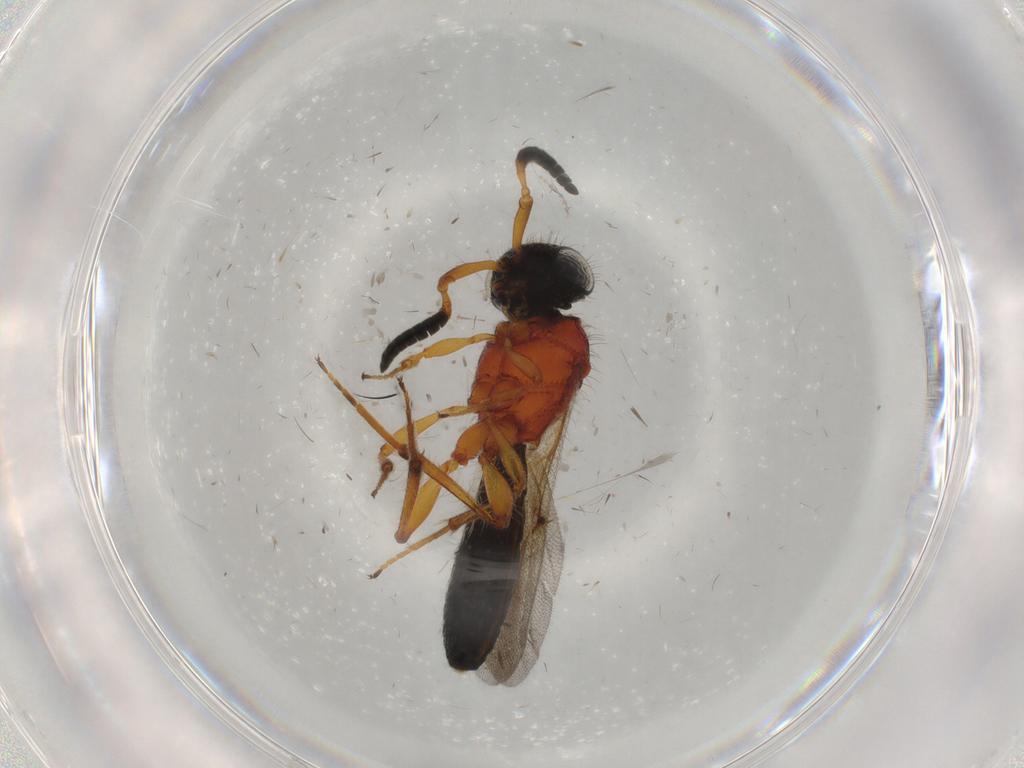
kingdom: Animalia
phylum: Arthropoda
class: Insecta
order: Hymenoptera
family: Scelionidae
